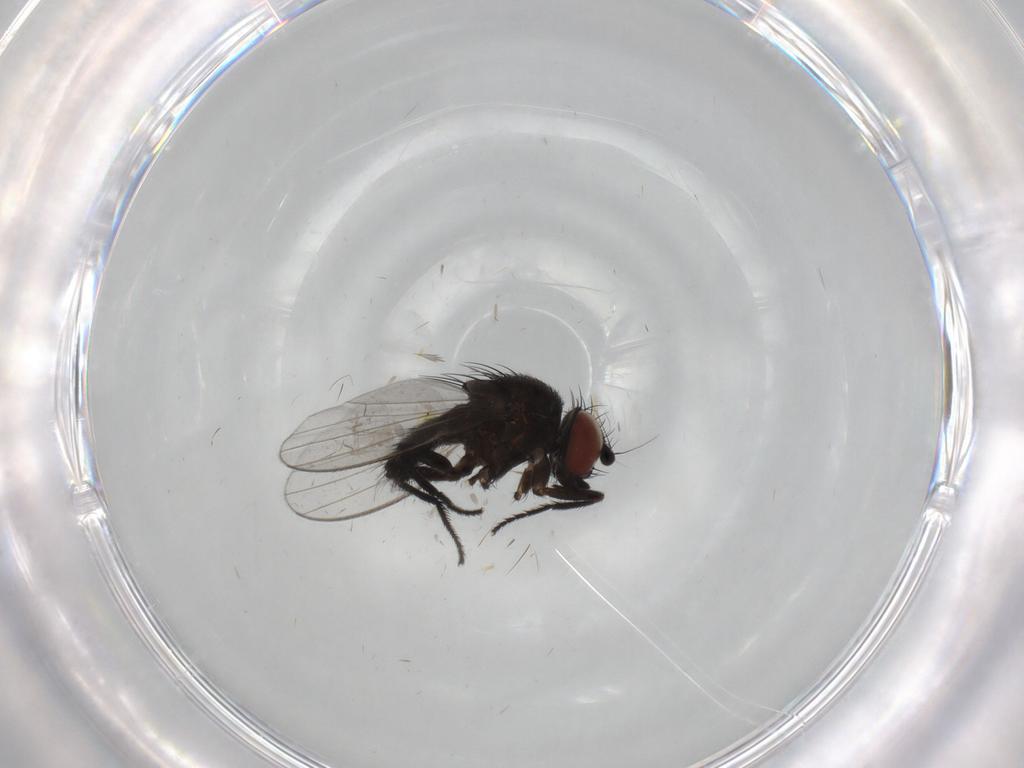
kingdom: Animalia
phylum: Arthropoda
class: Insecta
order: Diptera
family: Milichiidae
